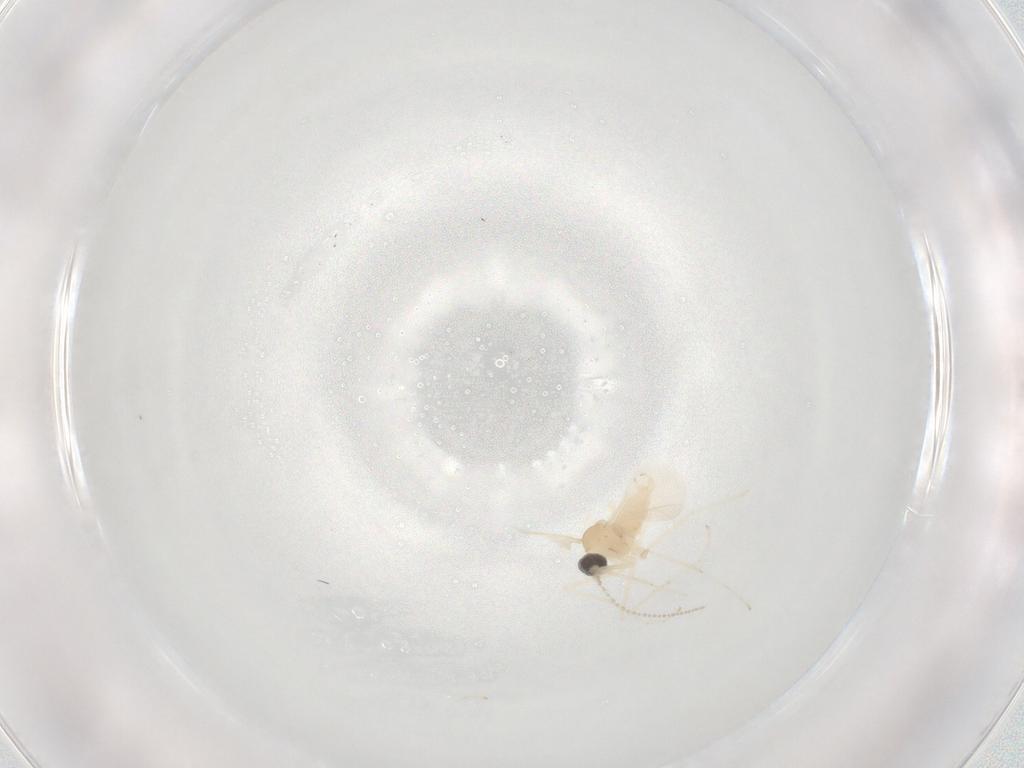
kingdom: Animalia
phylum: Arthropoda
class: Insecta
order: Diptera
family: Cecidomyiidae
